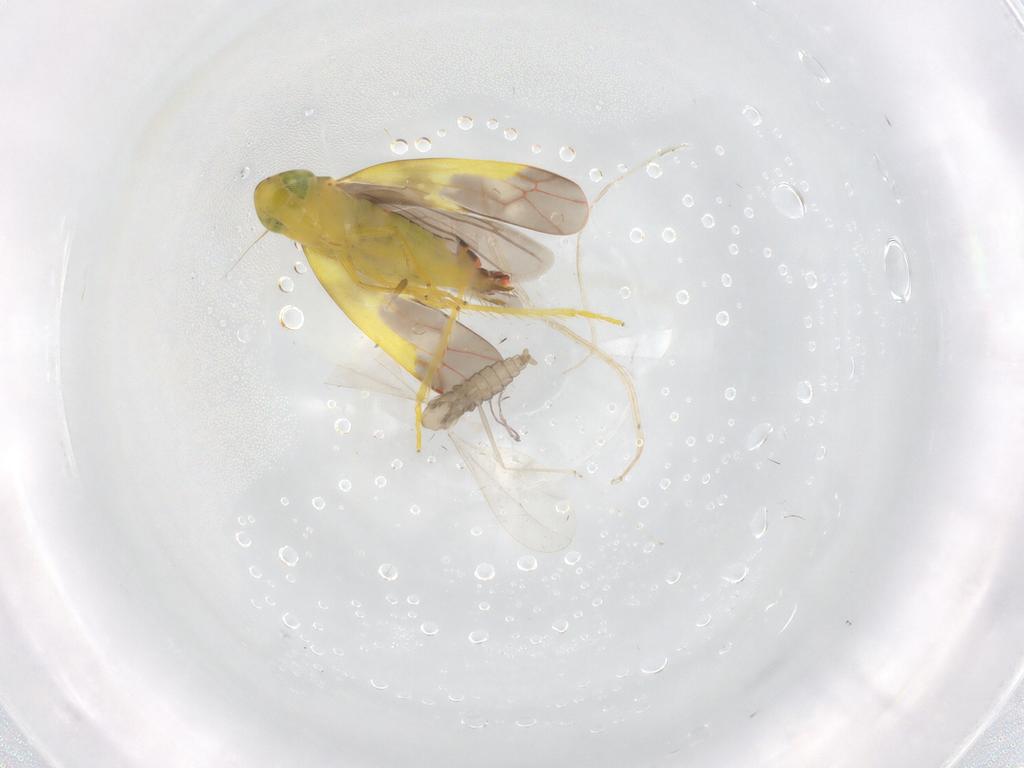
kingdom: Animalia
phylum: Arthropoda
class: Insecta
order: Hemiptera
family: Cicadellidae
